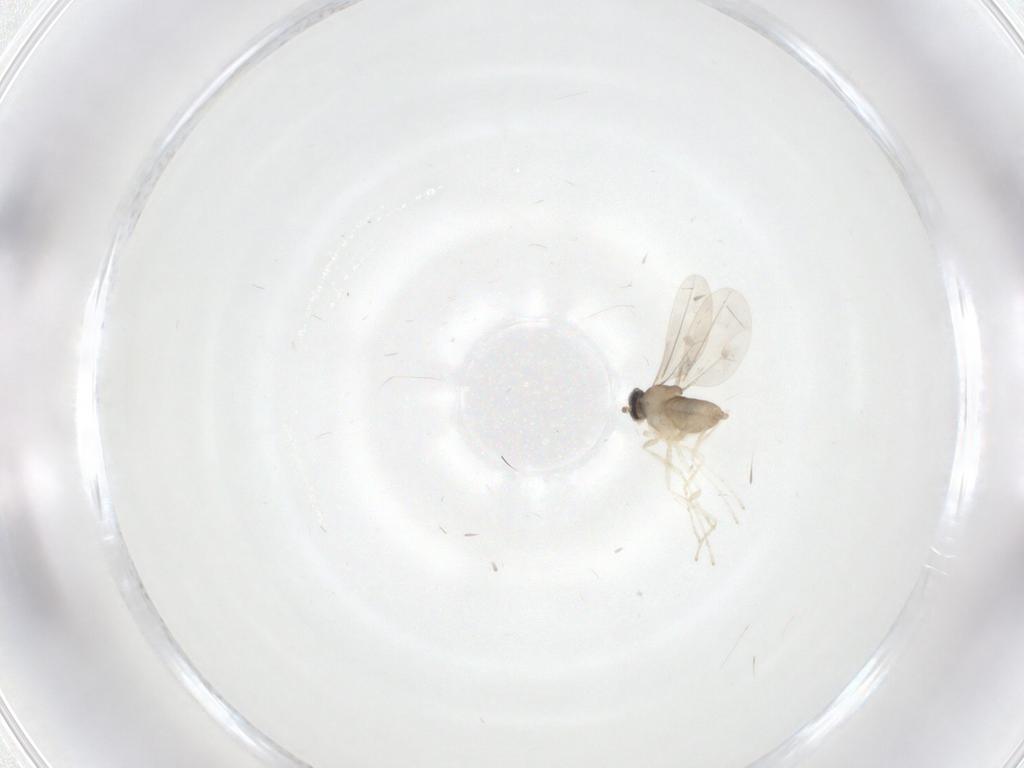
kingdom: Animalia
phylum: Arthropoda
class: Insecta
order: Diptera
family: Cecidomyiidae
